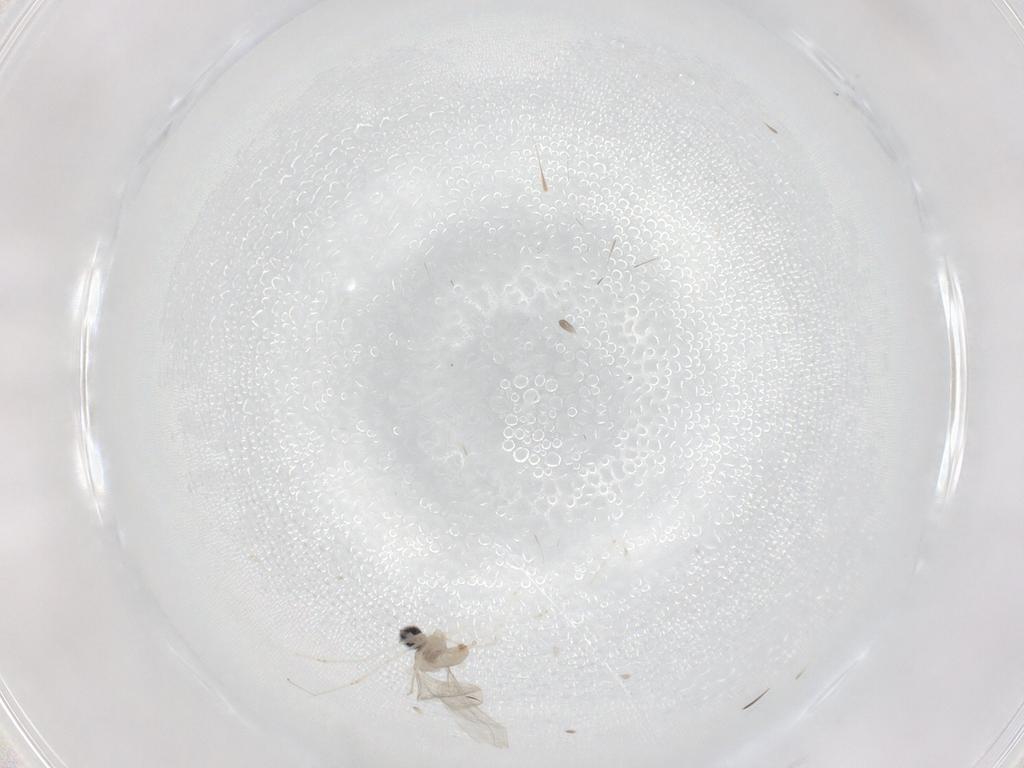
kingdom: Animalia
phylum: Arthropoda
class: Insecta
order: Diptera
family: Cecidomyiidae
